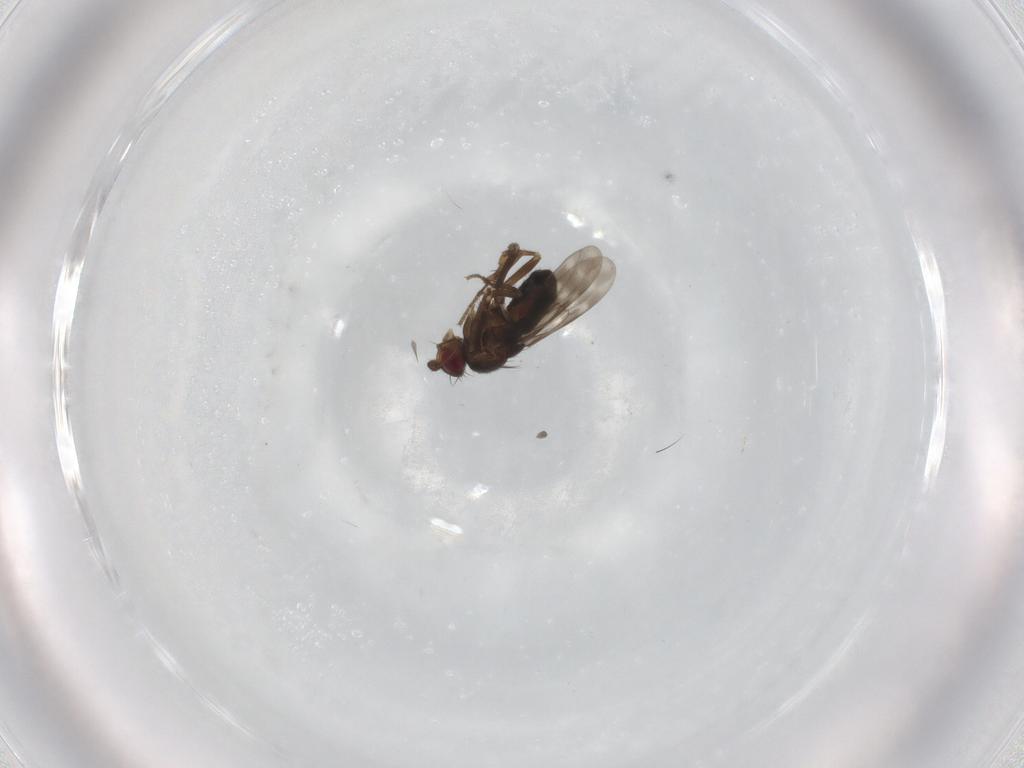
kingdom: Animalia
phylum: Arthropoda
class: Insecta
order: Diptera
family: Sphaeroceridae
